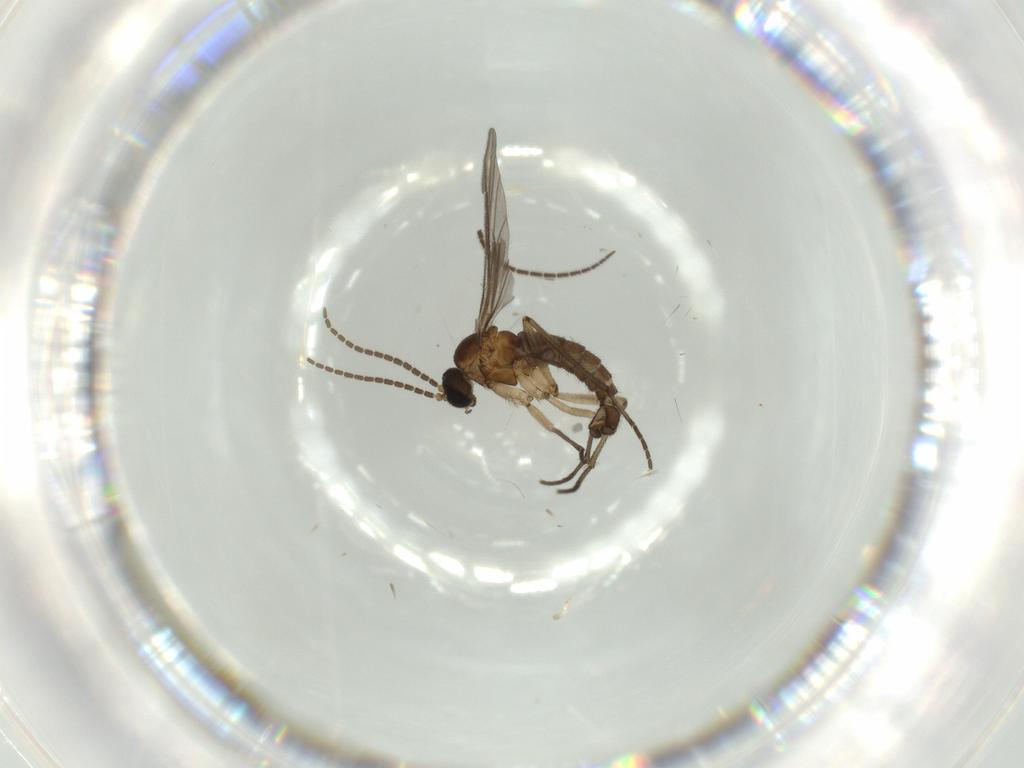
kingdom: Animalia
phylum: Arthropoda
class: Insecta
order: Diptera
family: Sciaridae
